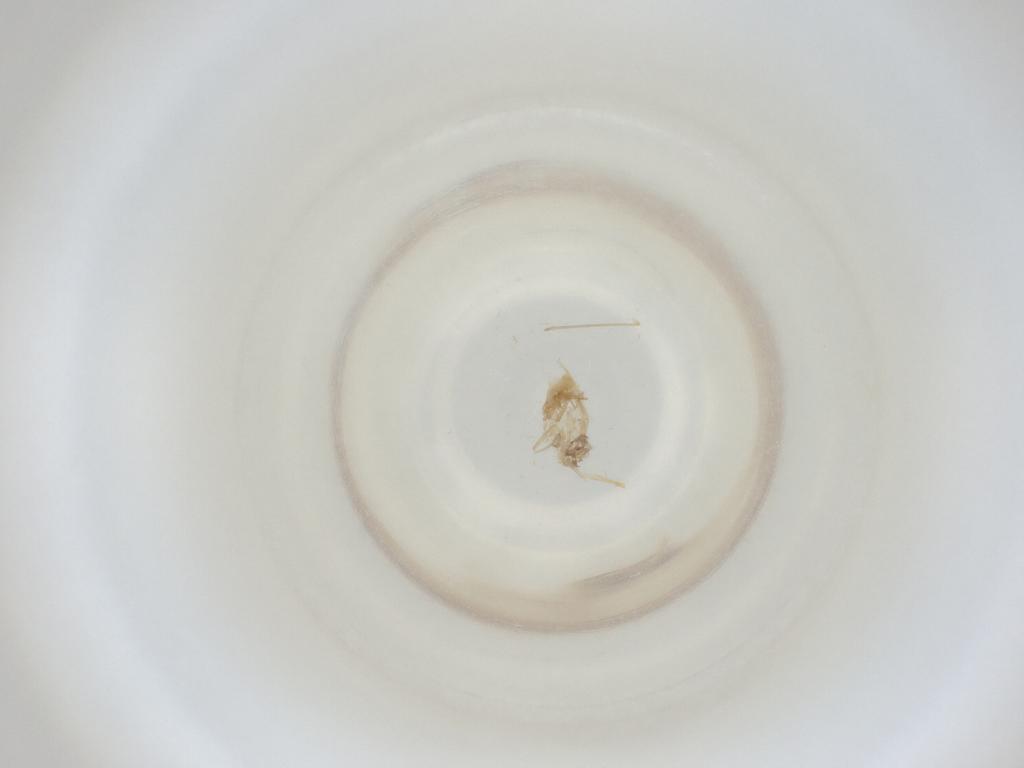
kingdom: Animalia
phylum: Arthropoda
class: Insecta
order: Diptera
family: Cecidomyiidae
